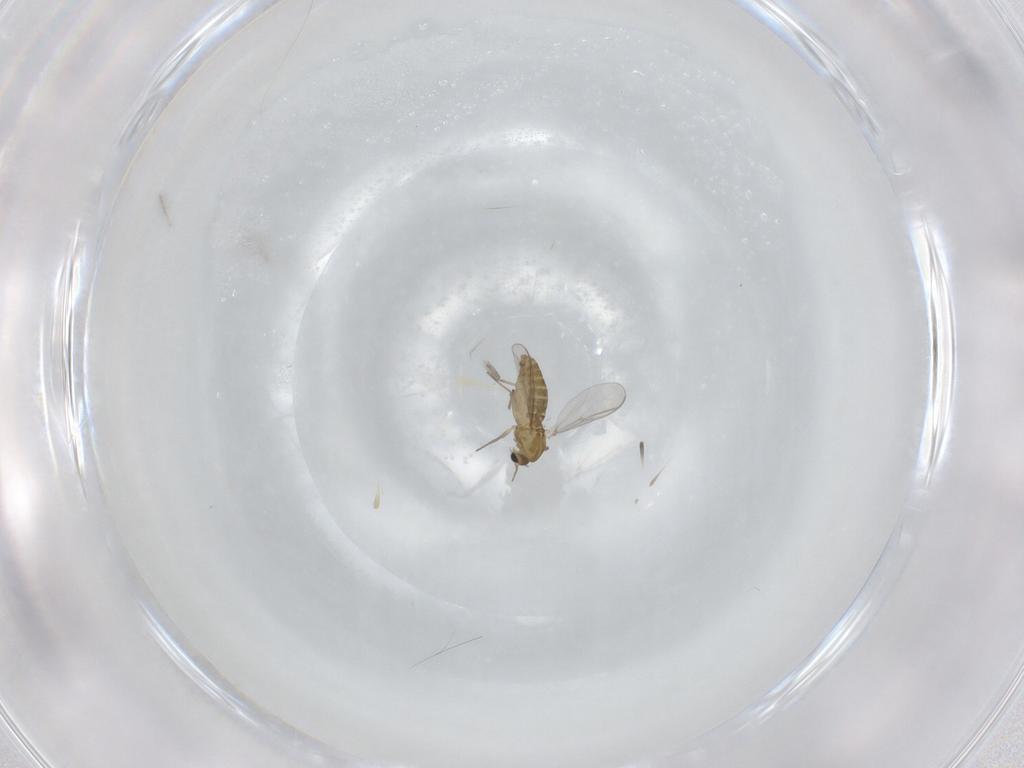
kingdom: Animalia
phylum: Arthropoda
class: Insecta
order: Diptera
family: Chironomidae
